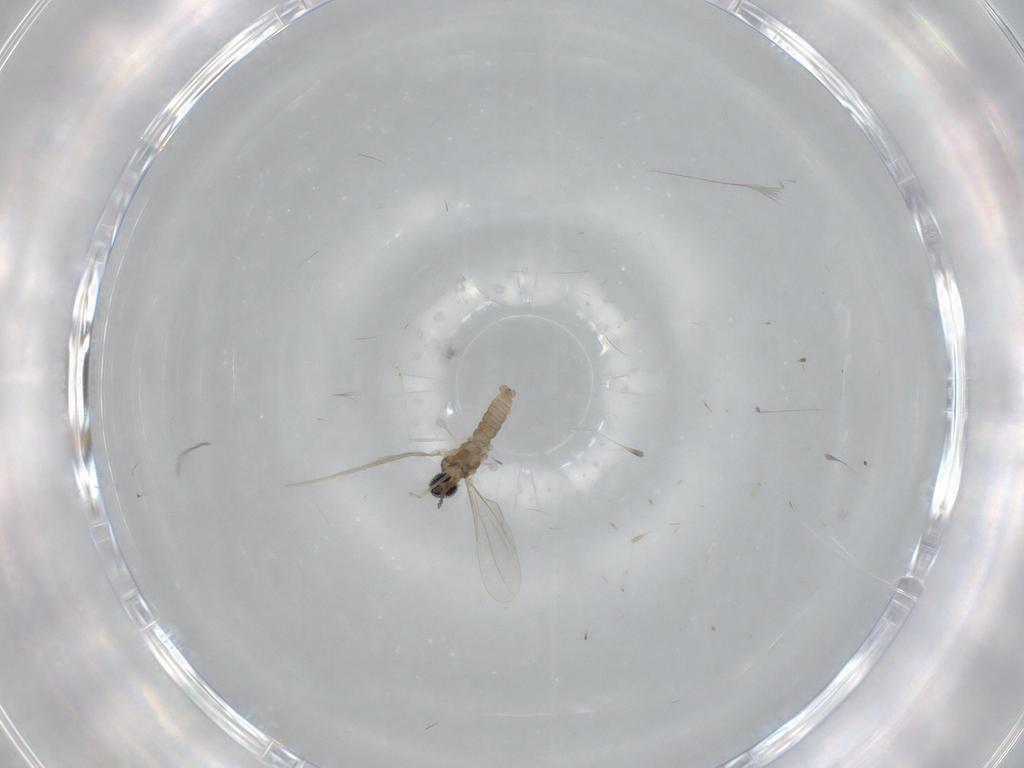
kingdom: Animalia
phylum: Arthropoda
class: Insecta
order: Diptera
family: Cecidomyiidae
